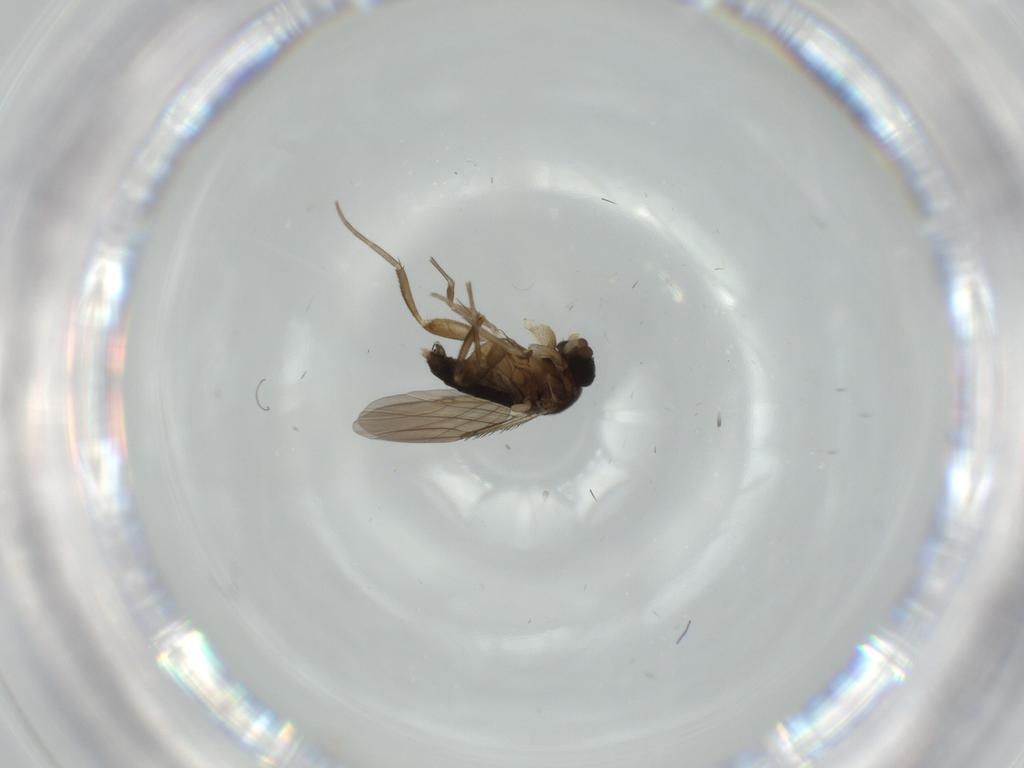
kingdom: Animalia
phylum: Arthropoda
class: Insecta
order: Diptera
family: Phoridae
